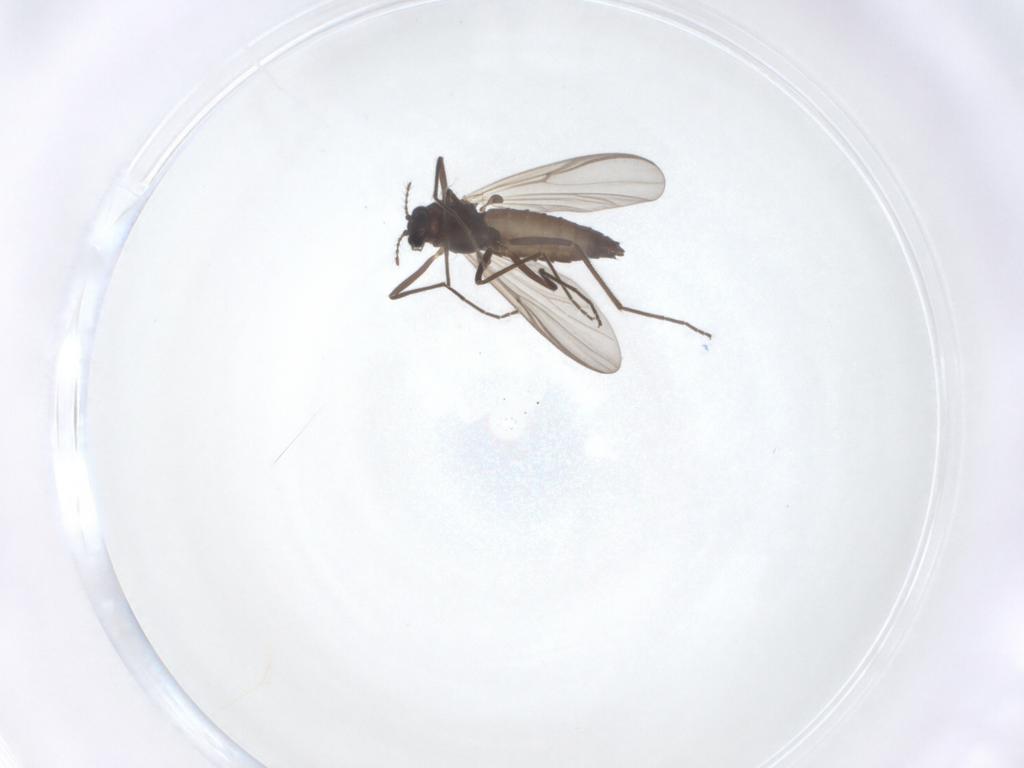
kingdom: Animalia
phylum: Arthropoda
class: Insecta
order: Diptera
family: Chironomidae
